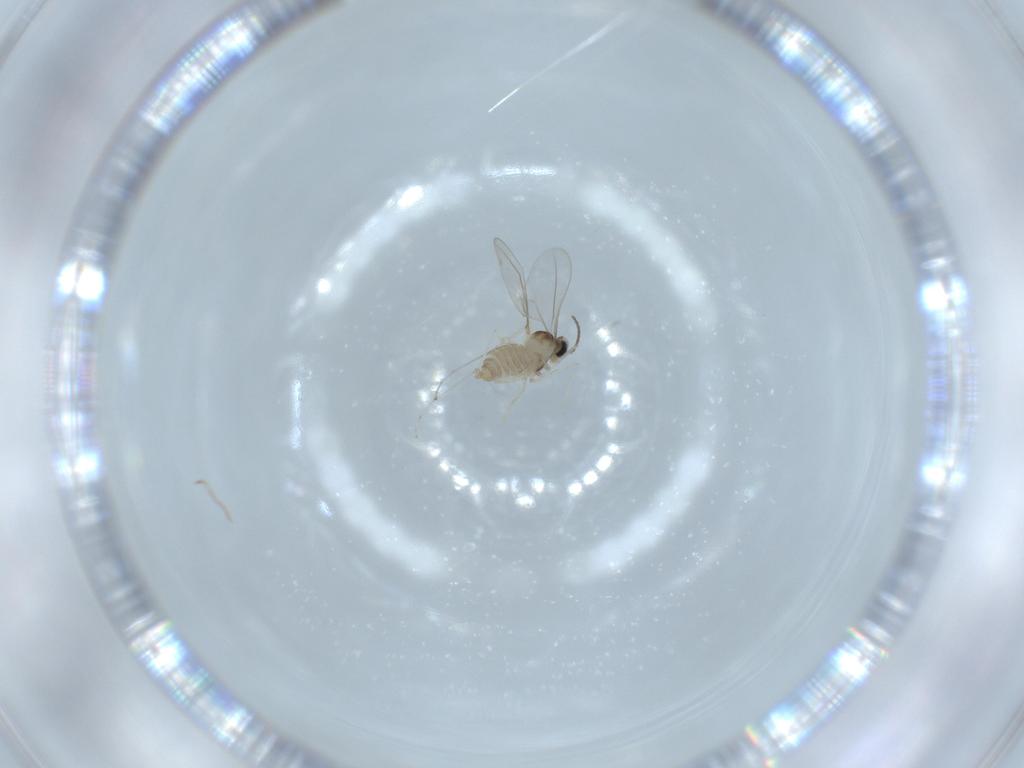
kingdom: Animalia
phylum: Arthropoda
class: Insecta
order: Diptera
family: Cecidomyiidae
